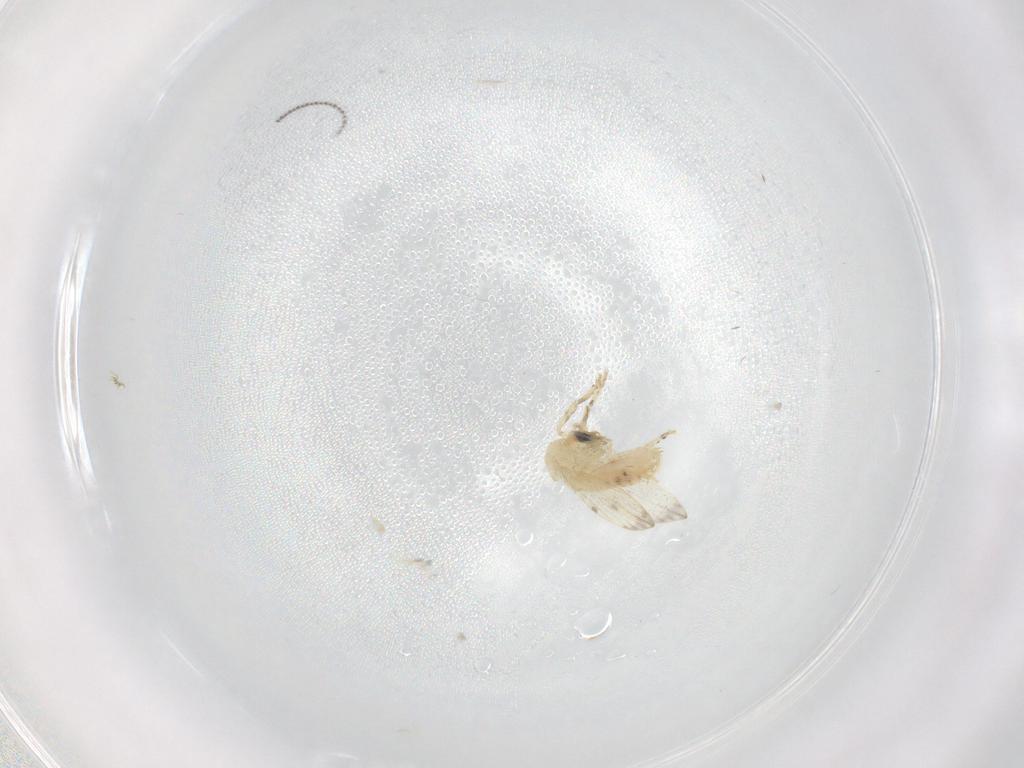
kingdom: Animalia
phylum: Arthropoda
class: Insecta
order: Diptera
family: Psychodidae
